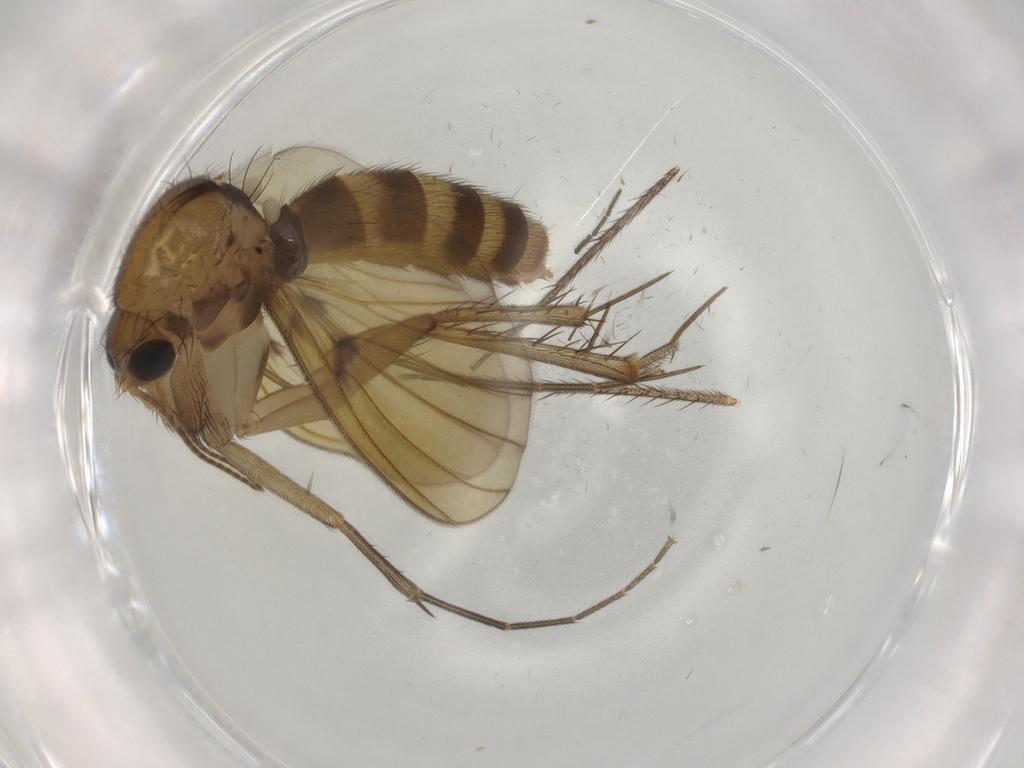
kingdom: Animalia
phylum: Arthropoda
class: Insecta
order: Diptera
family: Mycetophilidae
